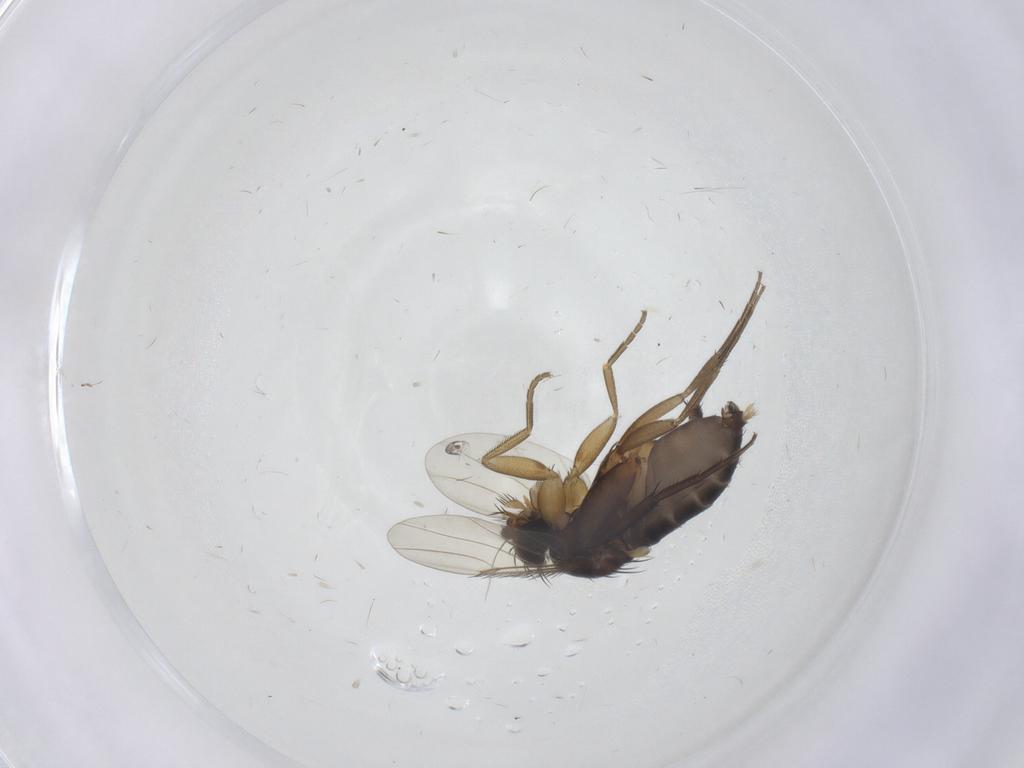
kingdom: Animalia
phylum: Arthropoda
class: Insecta
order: Diptera
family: Phoridae
